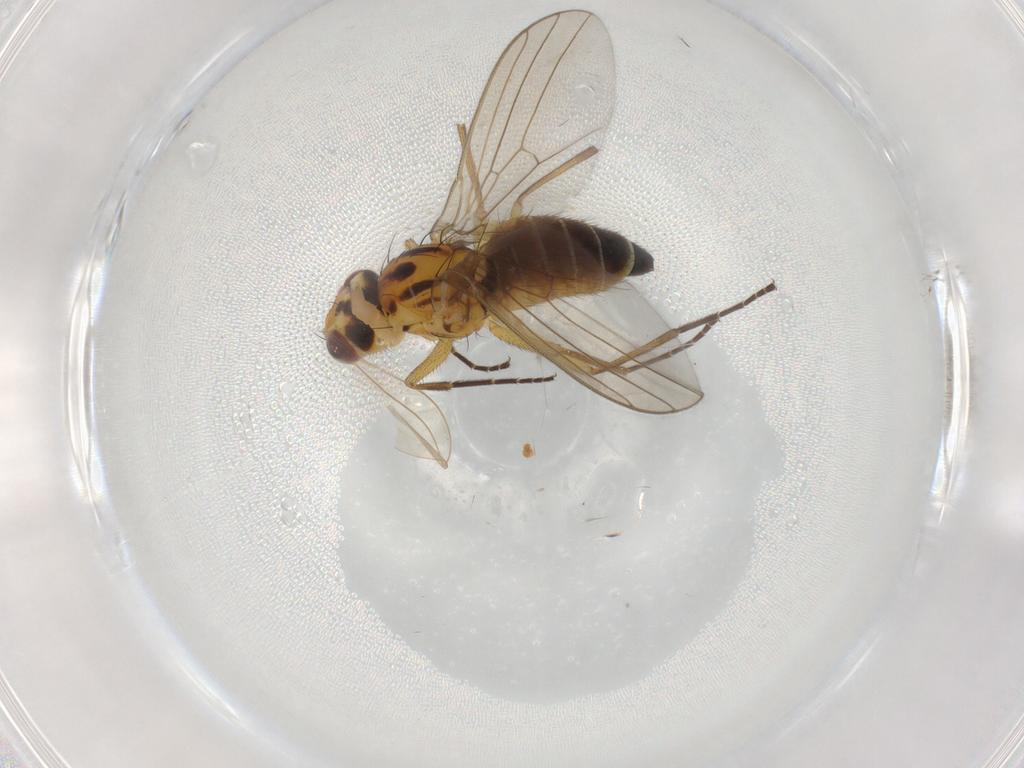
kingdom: Animalia
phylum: Arthropoda
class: Insecta
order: Diptera
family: Agromyzidae
